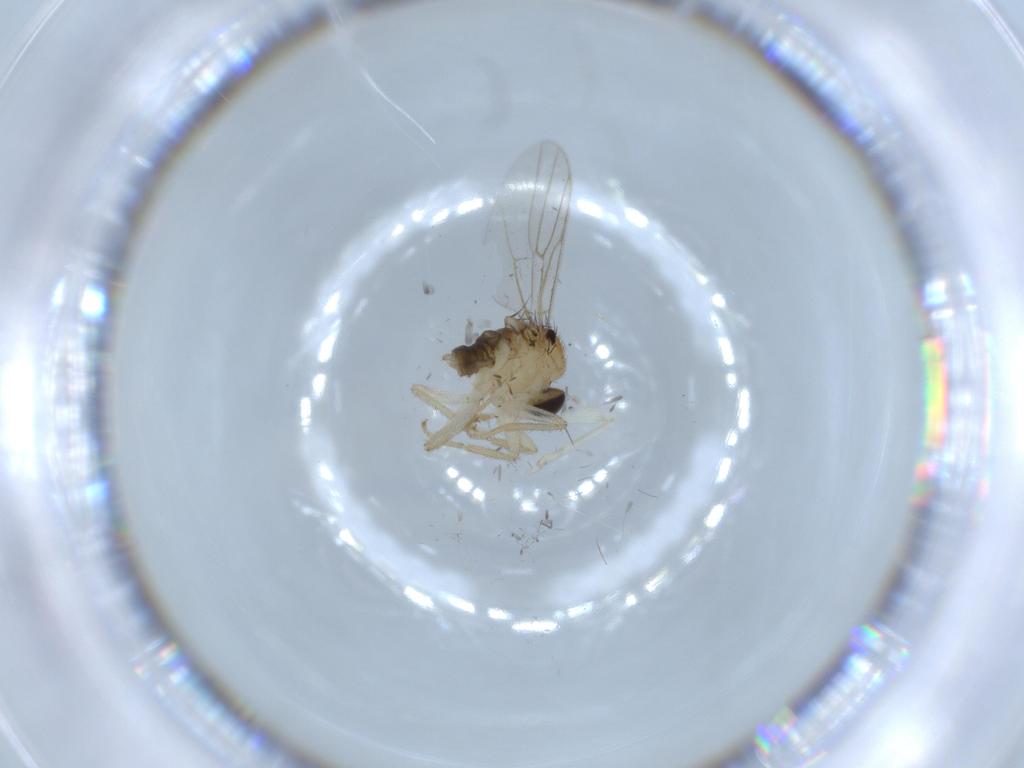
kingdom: Animalia
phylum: Arthropoda
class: Insecta
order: Diptera
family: Hybotidae
